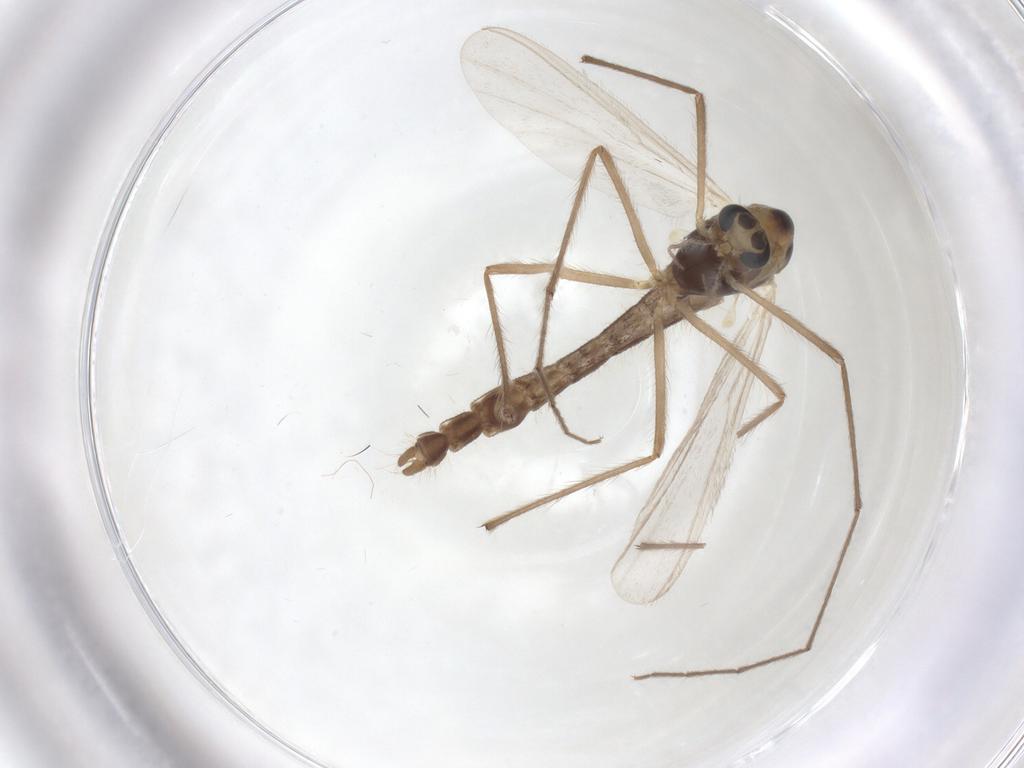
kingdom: Animalia
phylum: Arthropoda
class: Insecta
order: Diptera
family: Chironomidae
